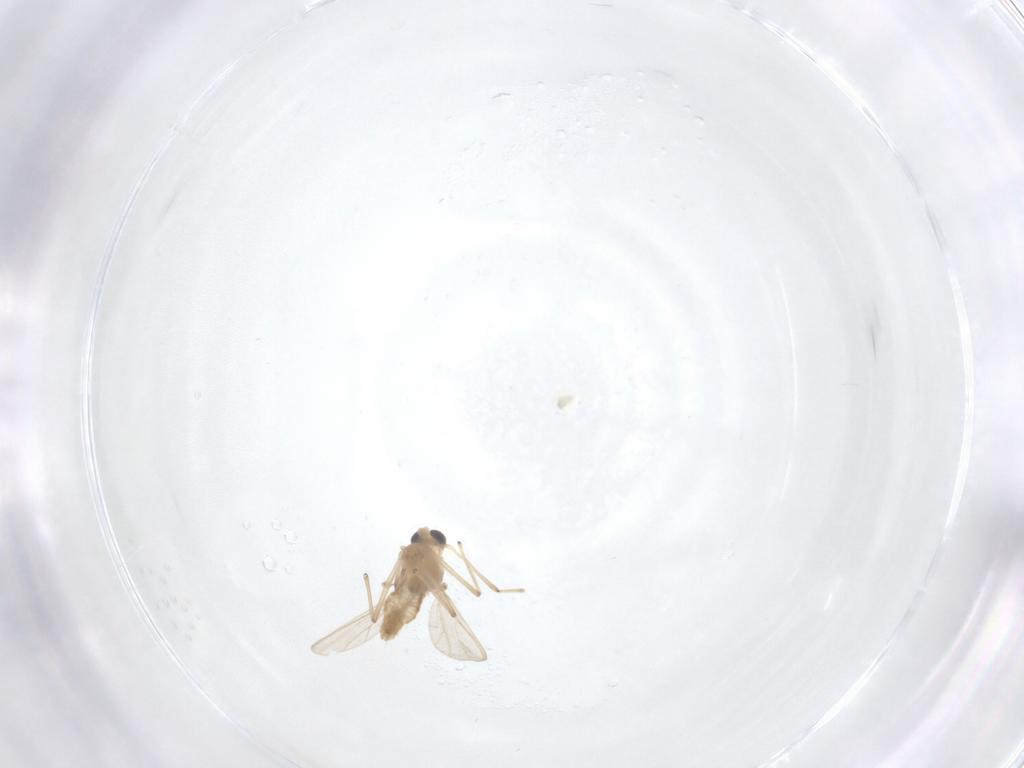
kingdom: Animalia
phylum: Arthropoda
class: Insecta
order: Diptera
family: Chironomidae
